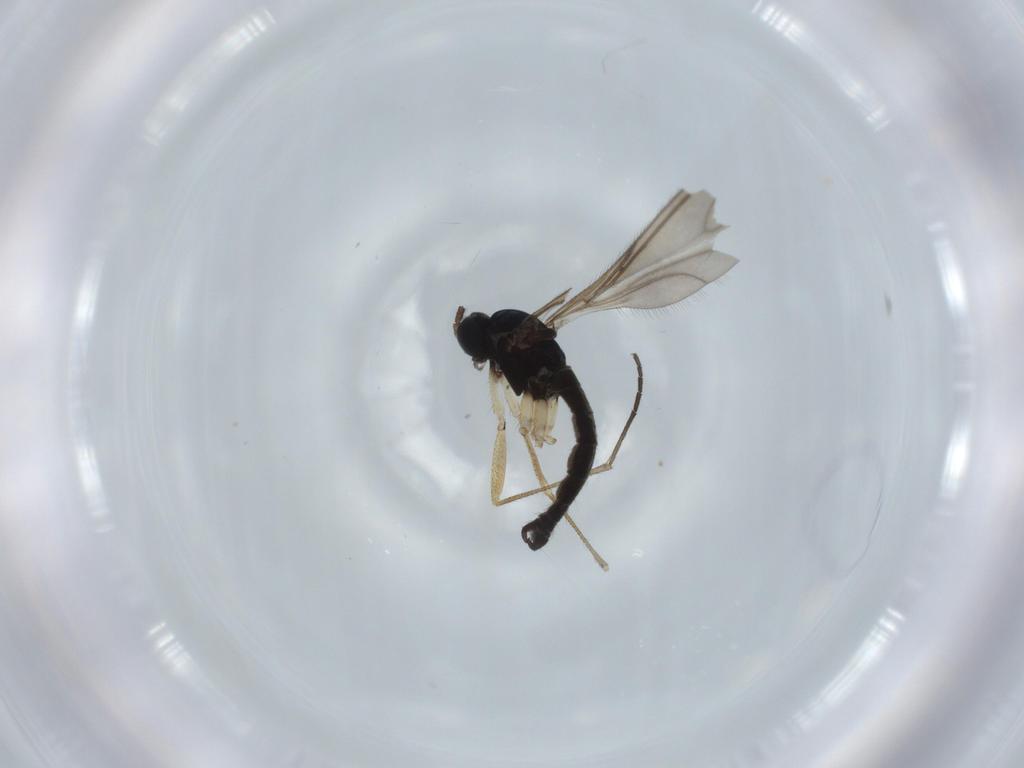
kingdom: Animalia
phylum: Arthropoda
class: Insecta
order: Diptera
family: Sciaridae
